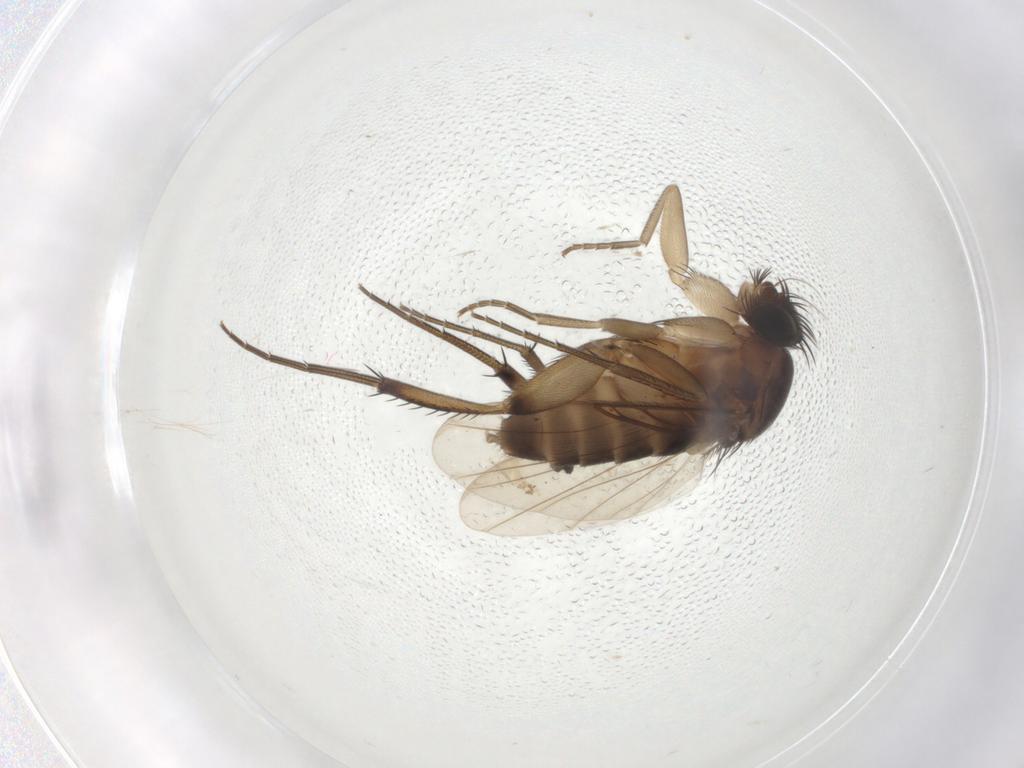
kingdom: Animalia
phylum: Arthropoda
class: Insecta
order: Diptera
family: Phoridae
